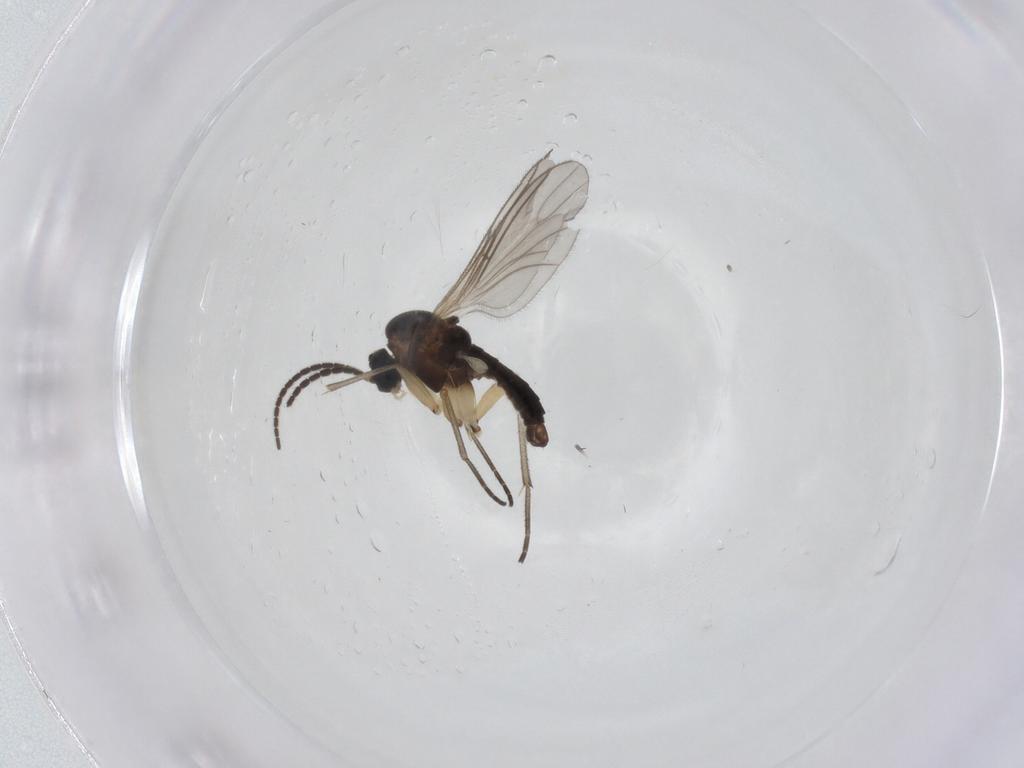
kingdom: Animalia
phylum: Arthropoda
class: Insecta
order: Diptera
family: Sciaridae
